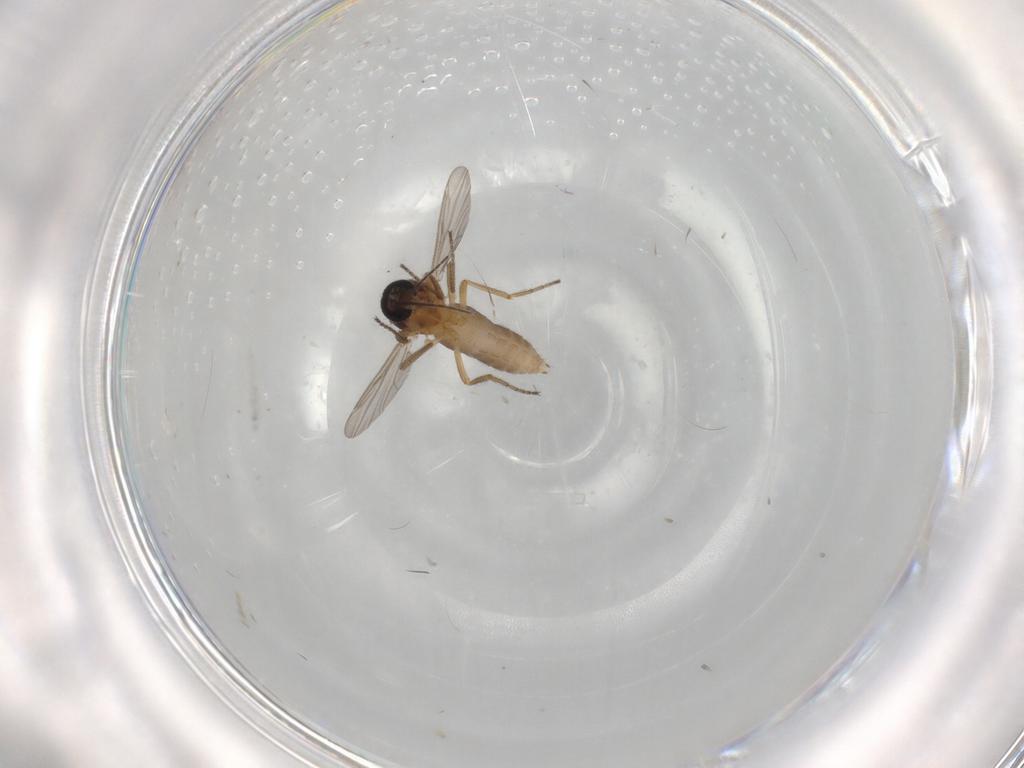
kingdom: Animalia
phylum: Arthropoda
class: Insecta
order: Diptera
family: Ceratopogonidae
